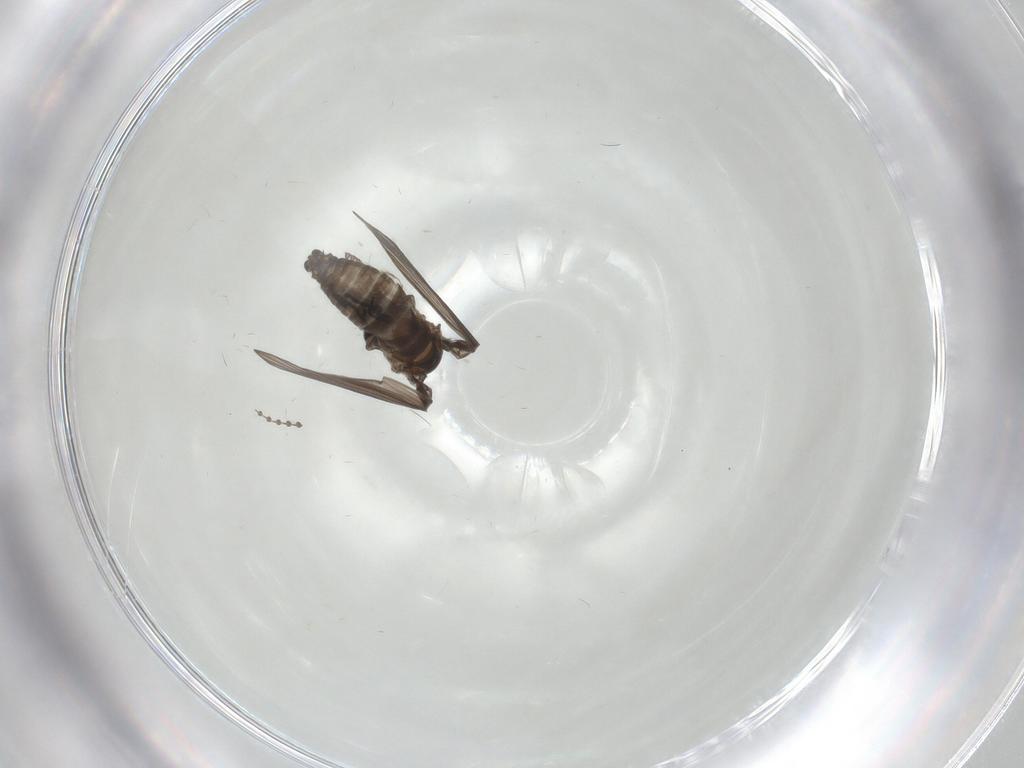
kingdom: Animalia
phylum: Arthropoda
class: Insecta
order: Diptera
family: Psychodidae
